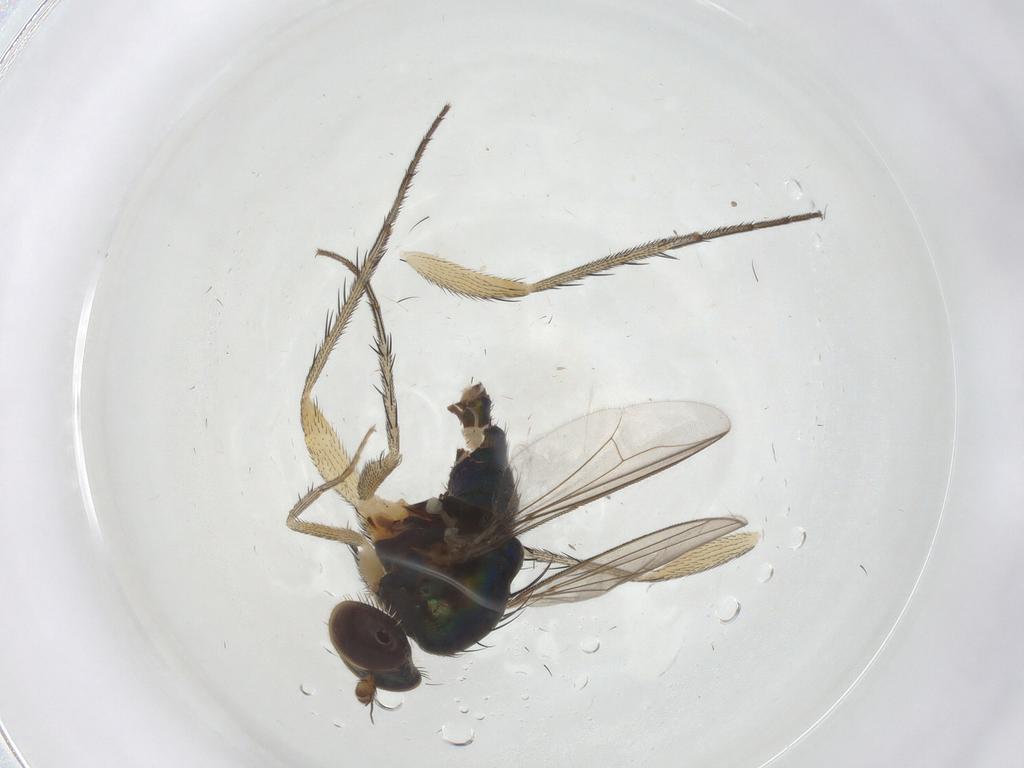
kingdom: Animalia
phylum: Arthropoda
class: Insecta
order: Diptera
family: Dolichopodidae
